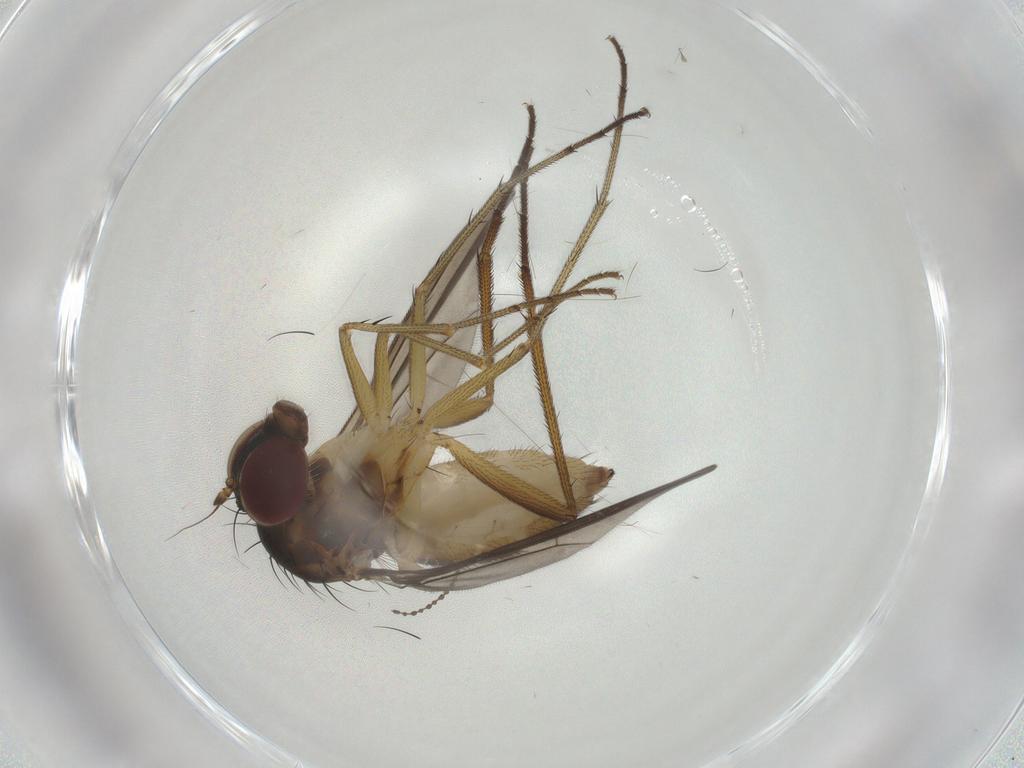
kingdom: Animalia
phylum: Arthropoda
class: Insecta
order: Diptera
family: Dolichopodidae
